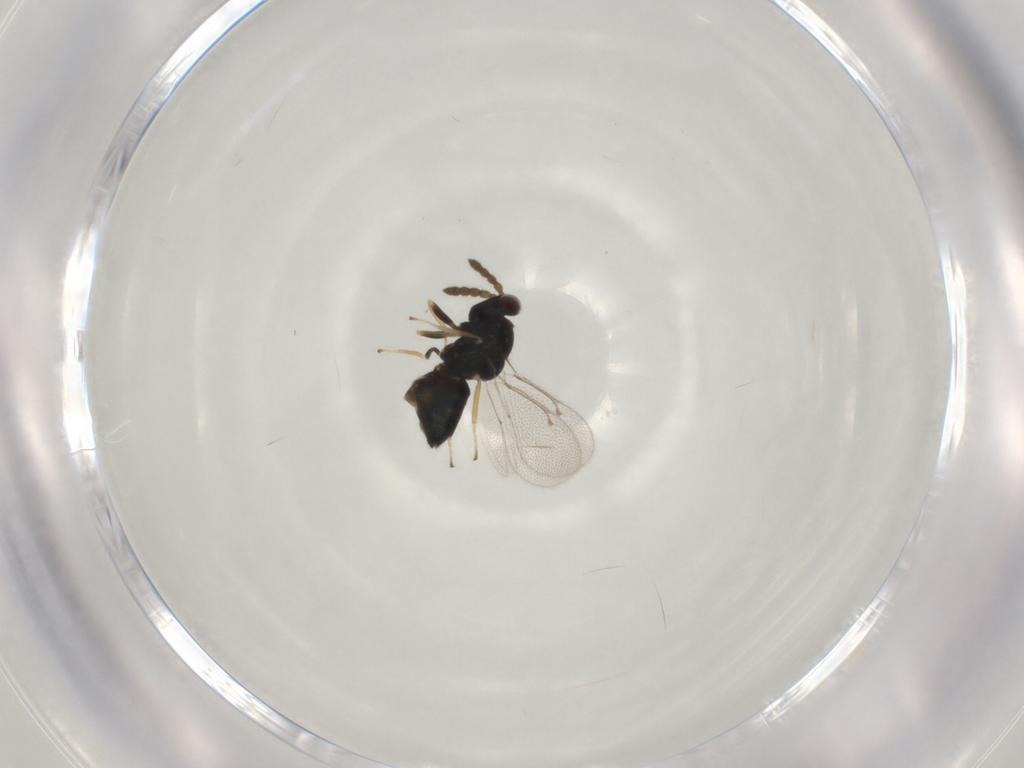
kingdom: Animalia
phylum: Arthropoda
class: Insecta
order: Hymenoptera
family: Eulophidae
